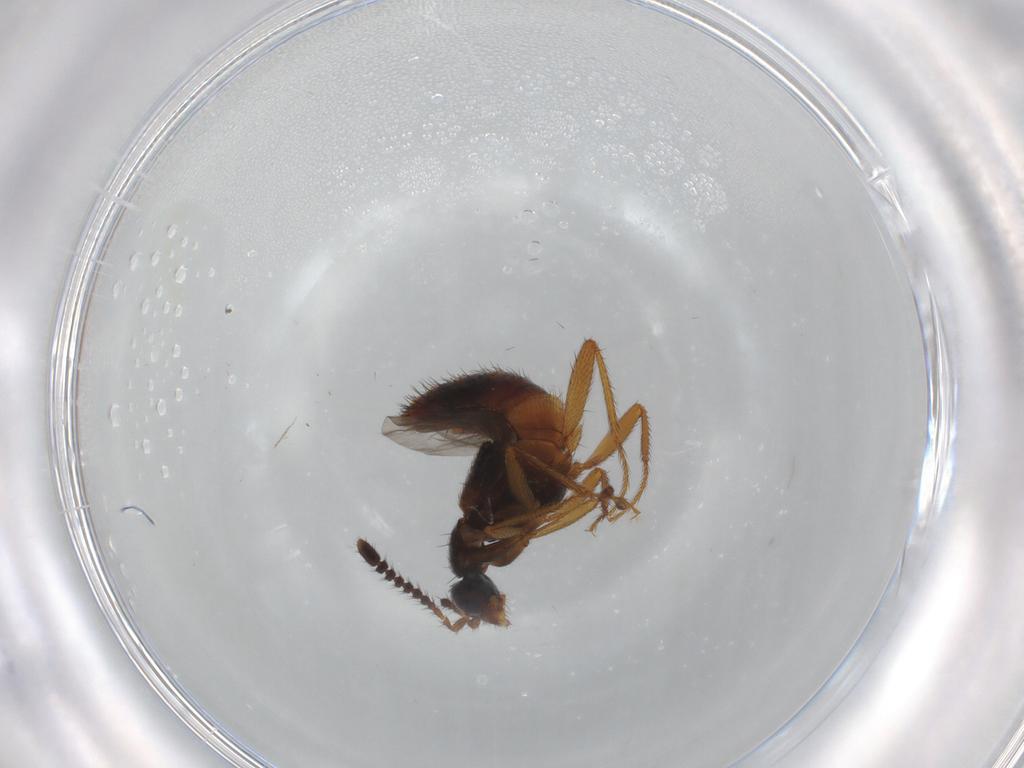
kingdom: Animalia
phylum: Arthropoda
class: Insecta
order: Coleoptera
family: Staphylinidae
